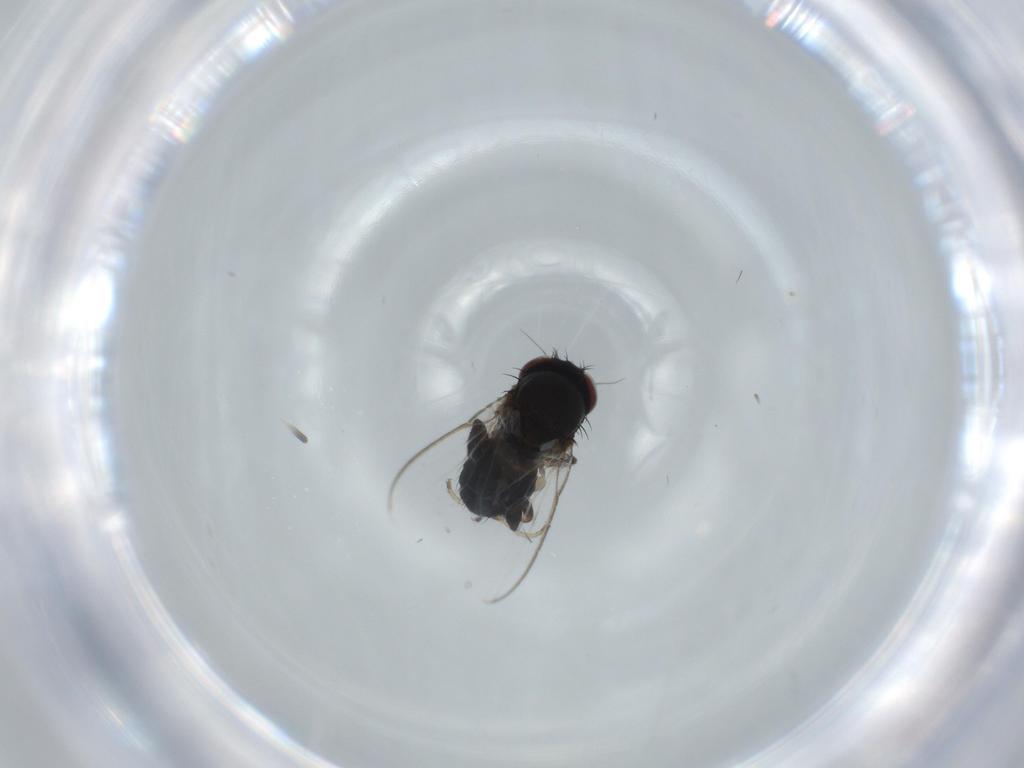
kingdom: Animalia
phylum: Arthropoda
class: Insecta
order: Diptera
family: Milichiidae
